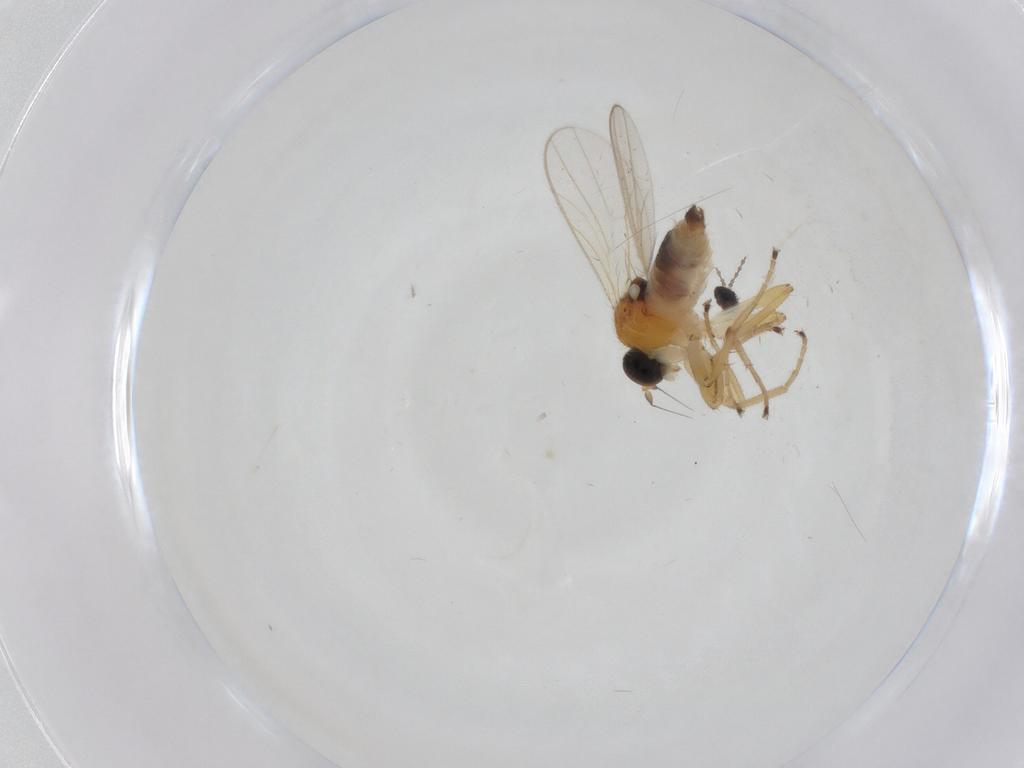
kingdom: Animalia
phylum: Arthropoda
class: Insecta
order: Diptera
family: Hybotidae
